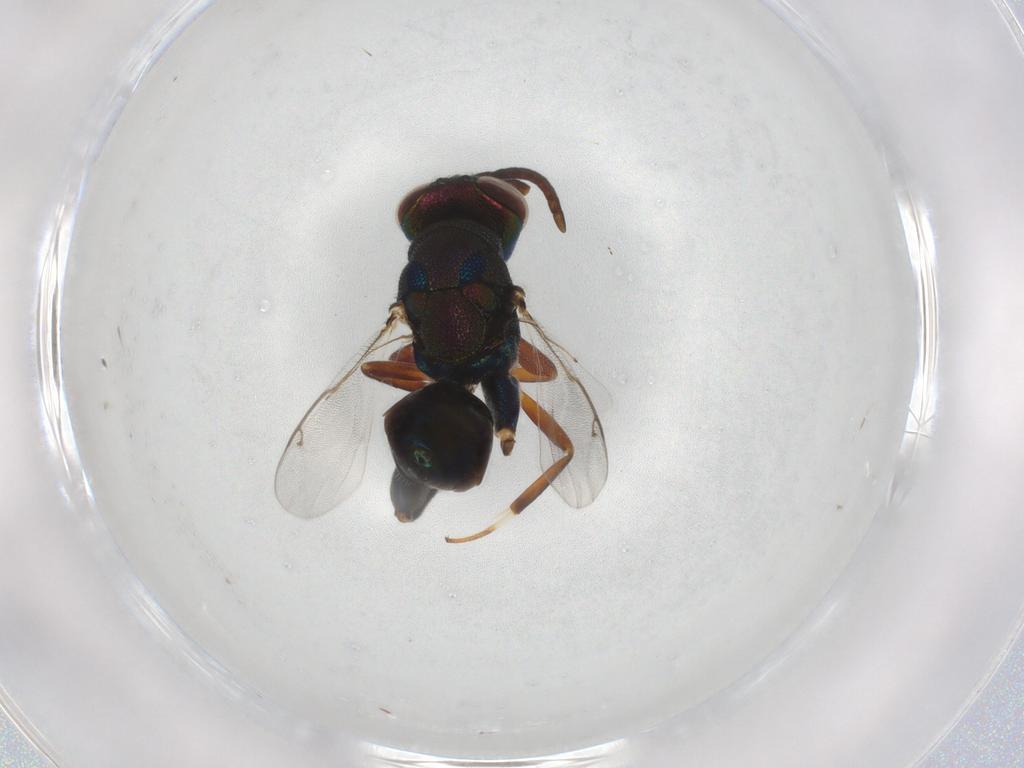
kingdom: Animalia
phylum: Arthropoda
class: Insecta
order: Hymenoptera
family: Eupelmidae
